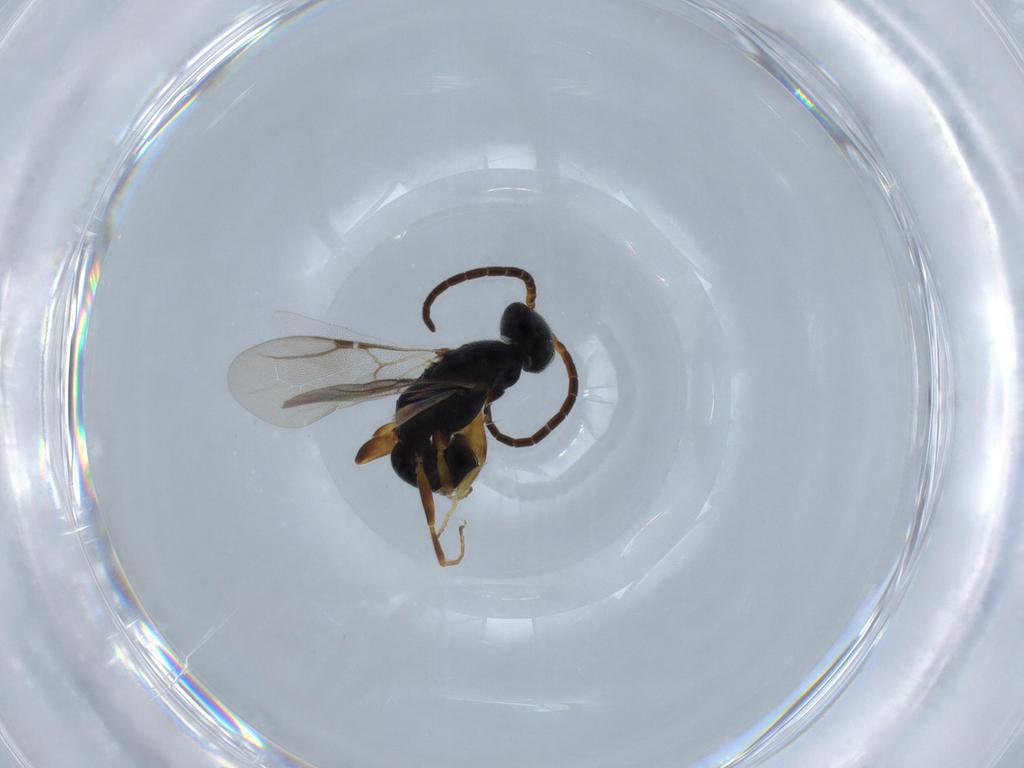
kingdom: Animalia
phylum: Arthropoda
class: Insecta
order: Hymenoptera
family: Bethylidae
